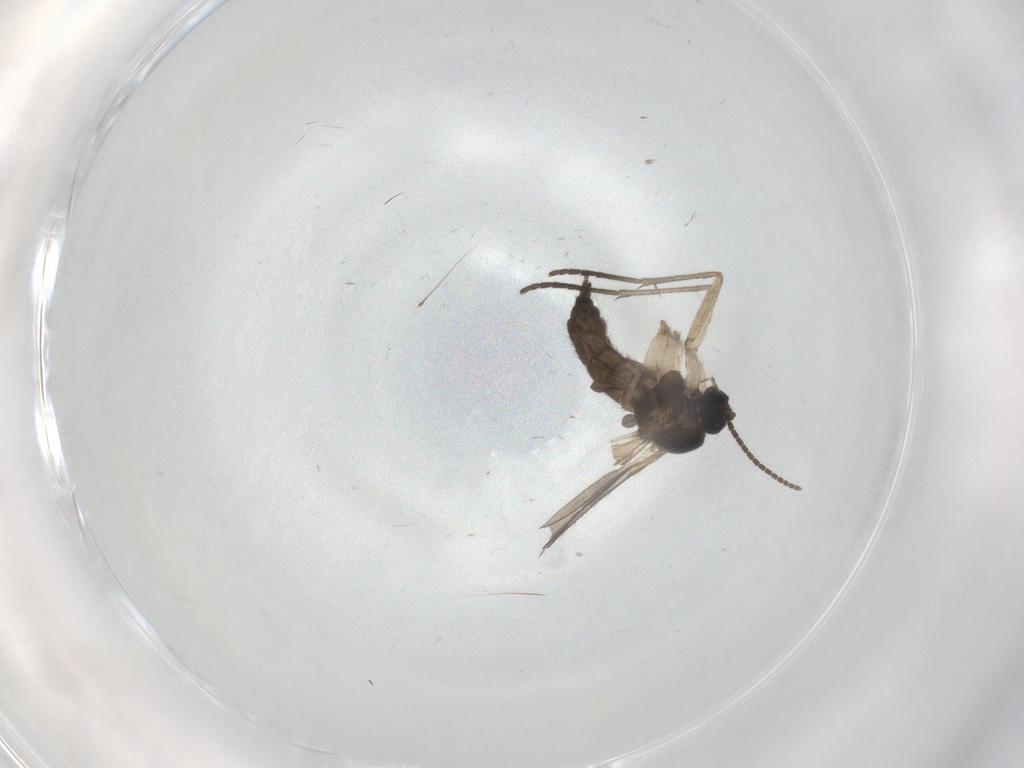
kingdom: Animalia
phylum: Arthropoda
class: Insecta
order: Diptera
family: Sciaridae
